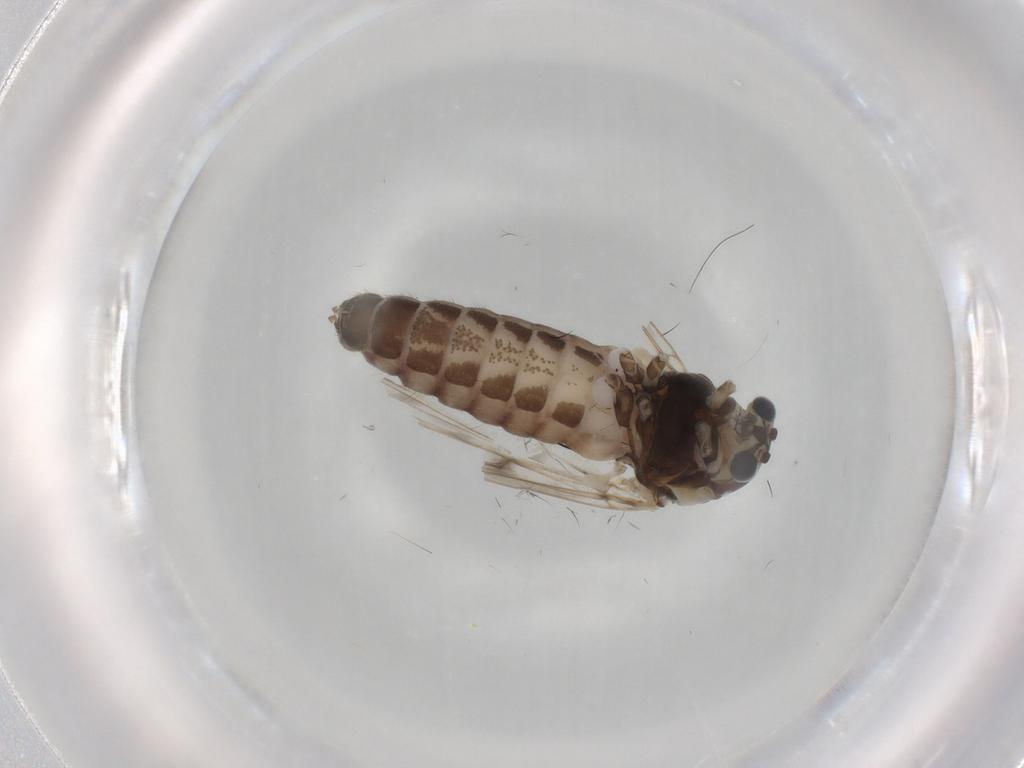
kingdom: Animalia
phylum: Arthropoda
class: Insecta
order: Diptera
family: Chironomidae
